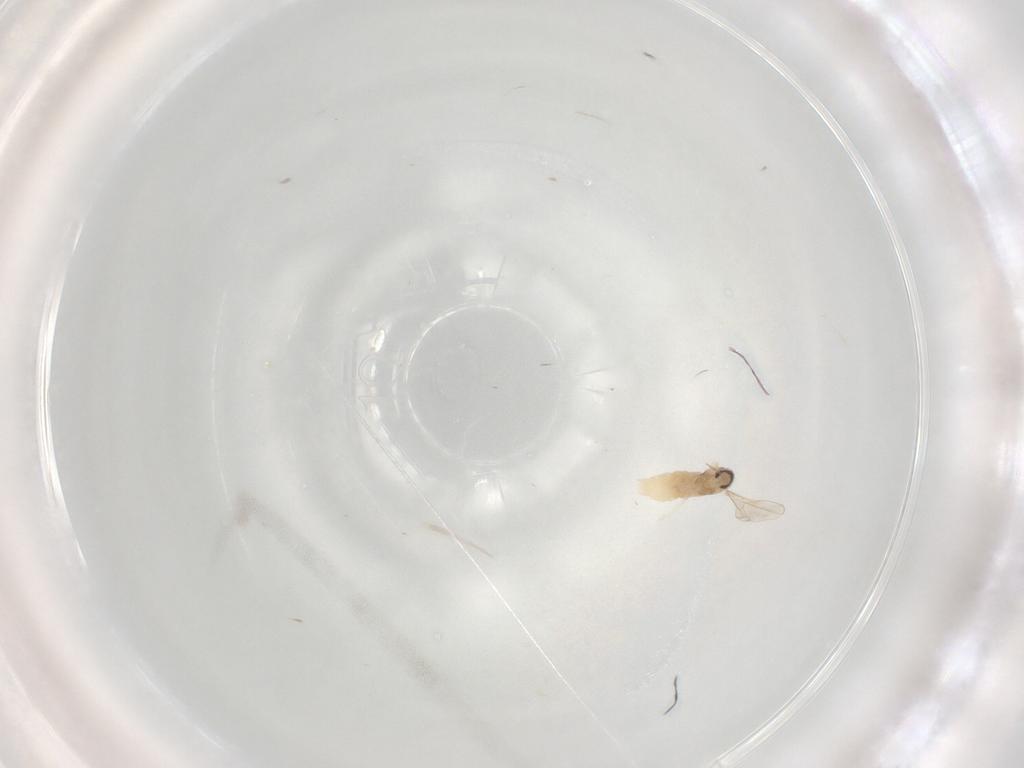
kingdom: Animalia
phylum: Arthropoda
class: Insecta
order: Diptera
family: Cecidomyiidae
